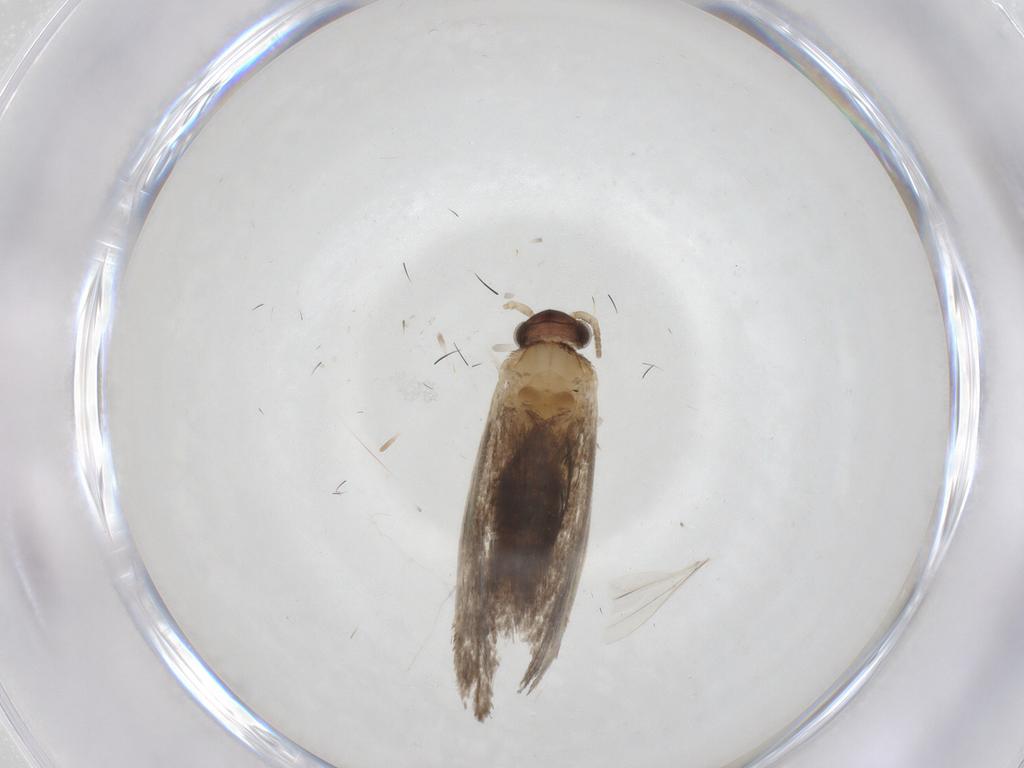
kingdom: Animalia
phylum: Arthropoda
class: Insecta
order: Lepidoptera
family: Dryadaulidae
